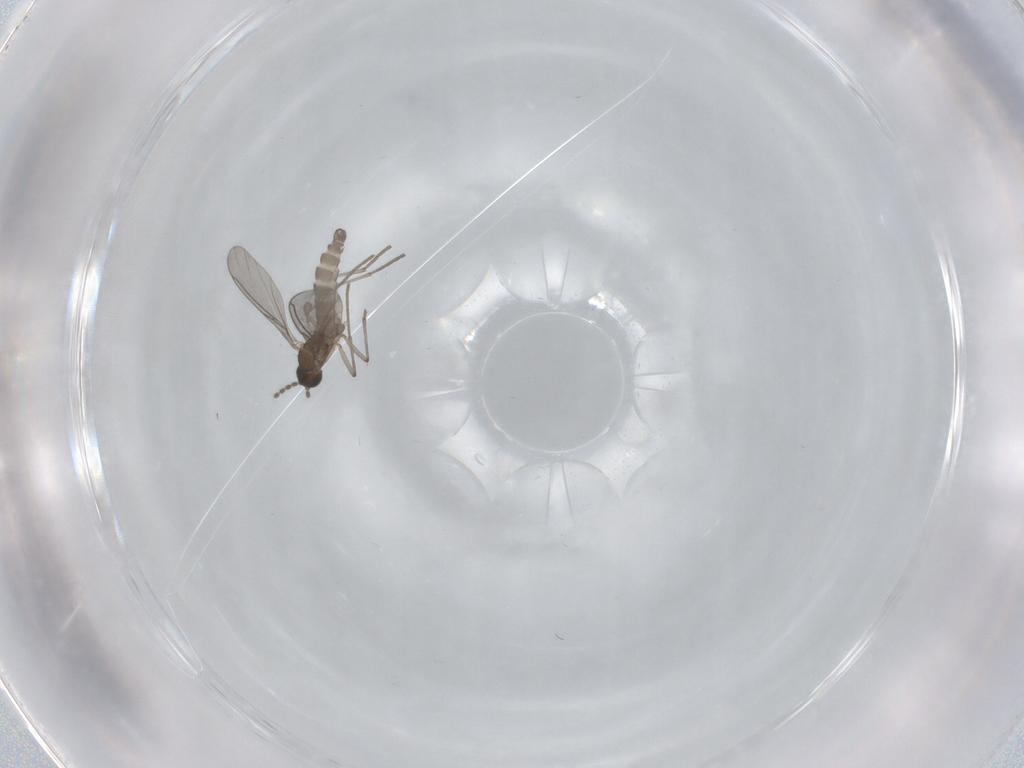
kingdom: Animalia
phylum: Arthropoda
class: Insecta
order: Diptera
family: Sciaridae
